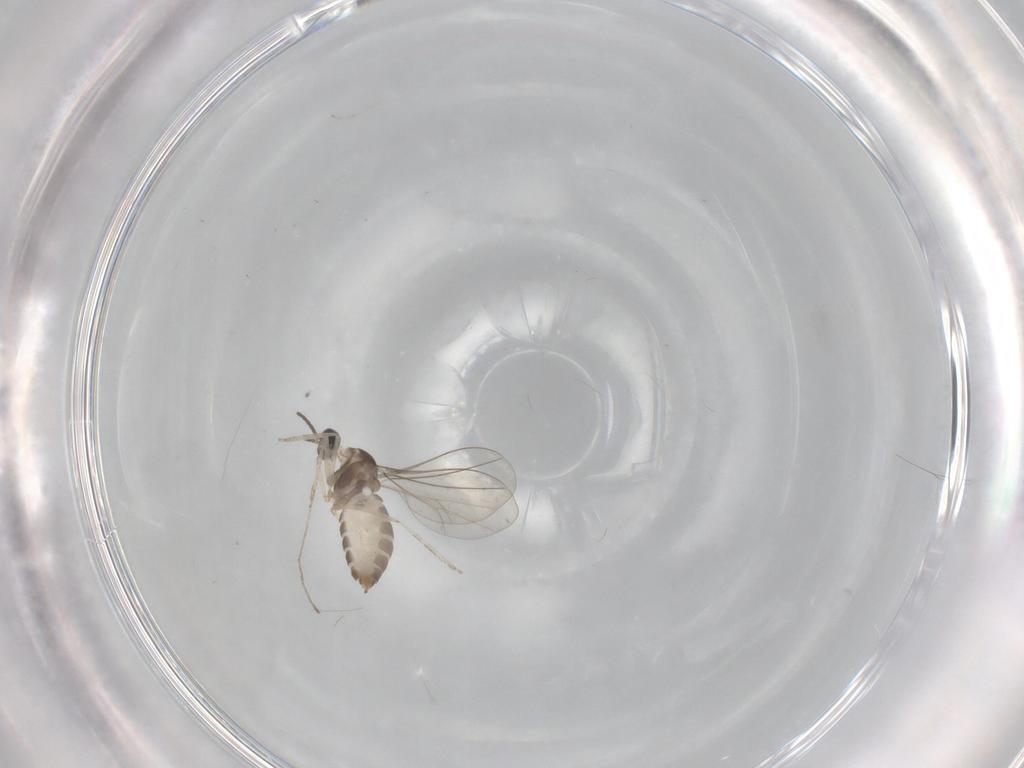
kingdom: Animalia
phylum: Arthropoda
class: Insecta
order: Diptera
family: Cecidomyiidae
